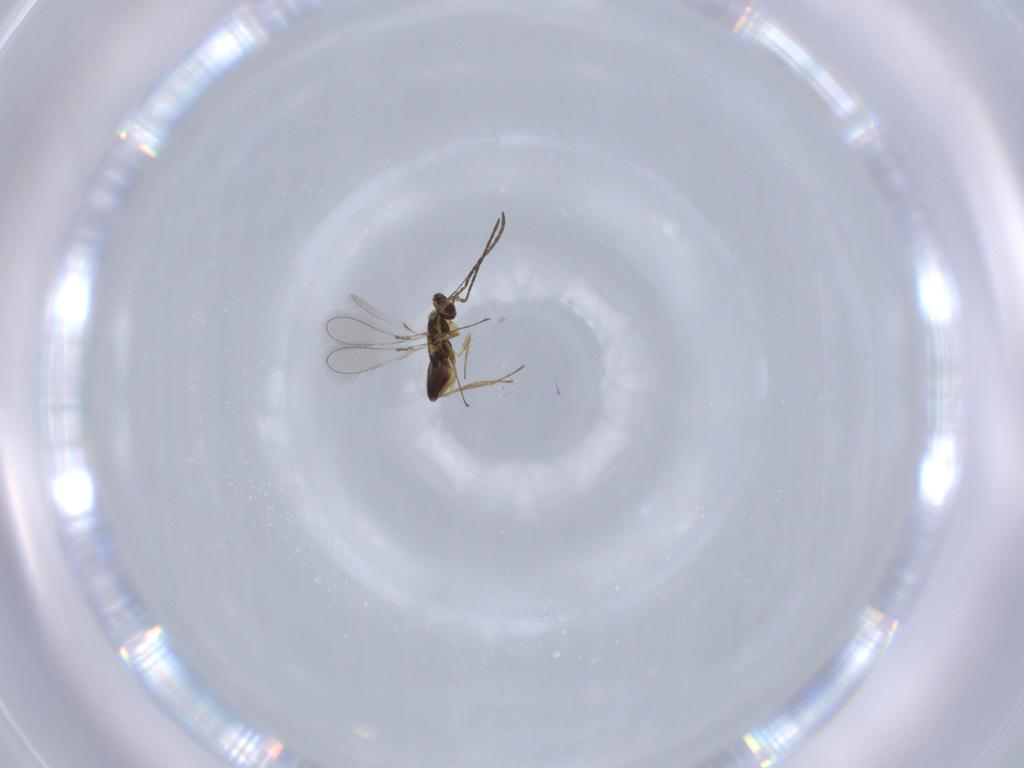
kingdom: Animalia
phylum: Arthropoda
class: Insecta
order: Hymenoptera
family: Mymaridae
